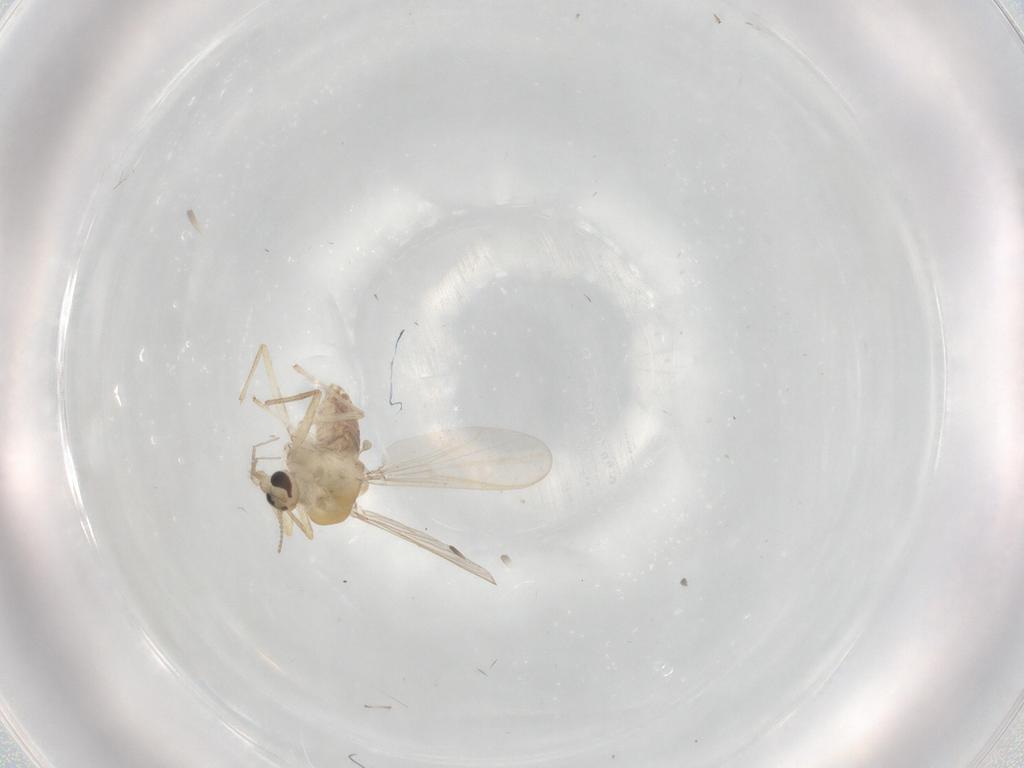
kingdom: Animalia
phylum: Arthropoda
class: Insecta
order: Diptera
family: Chironomidae
